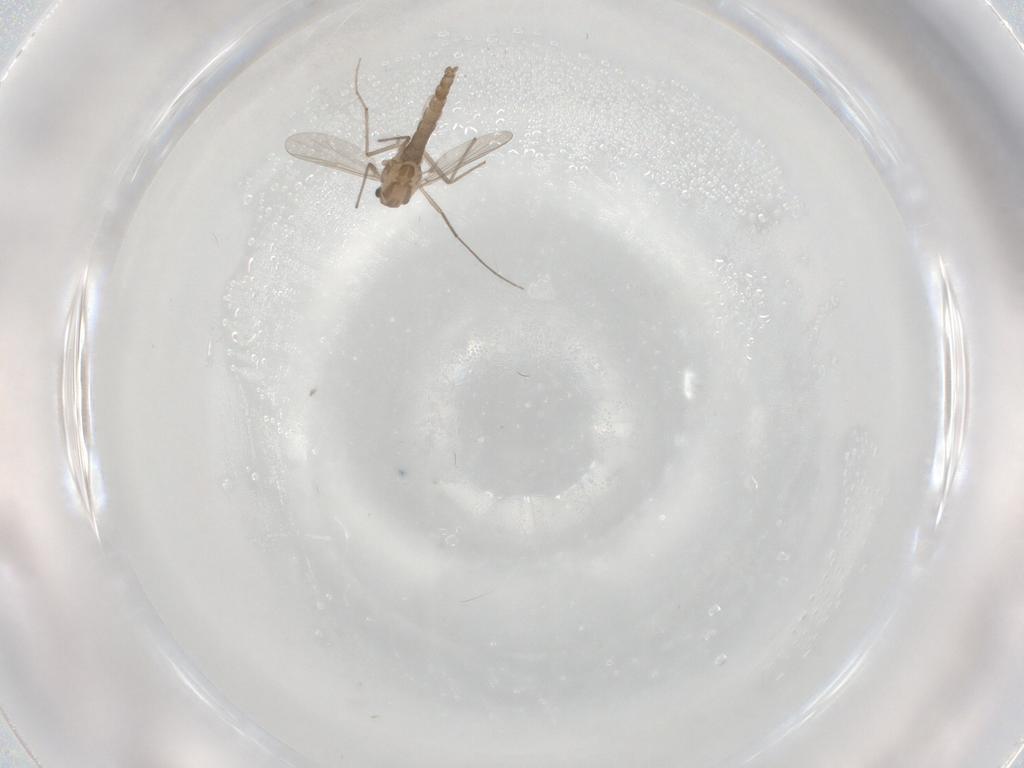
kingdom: Animalia
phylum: Arthropoda
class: Insecta
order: Diptera
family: Chironomidae
